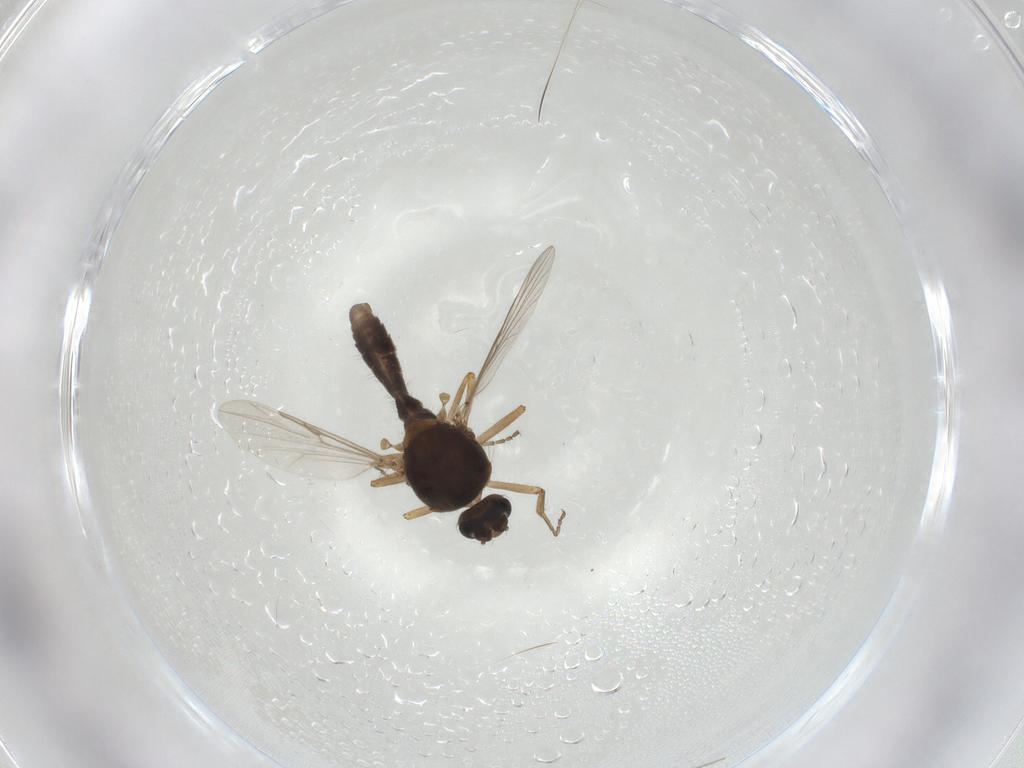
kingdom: Animalia
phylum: Arthropoda
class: Insecta
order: Diptera
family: Ceratopogonidae
